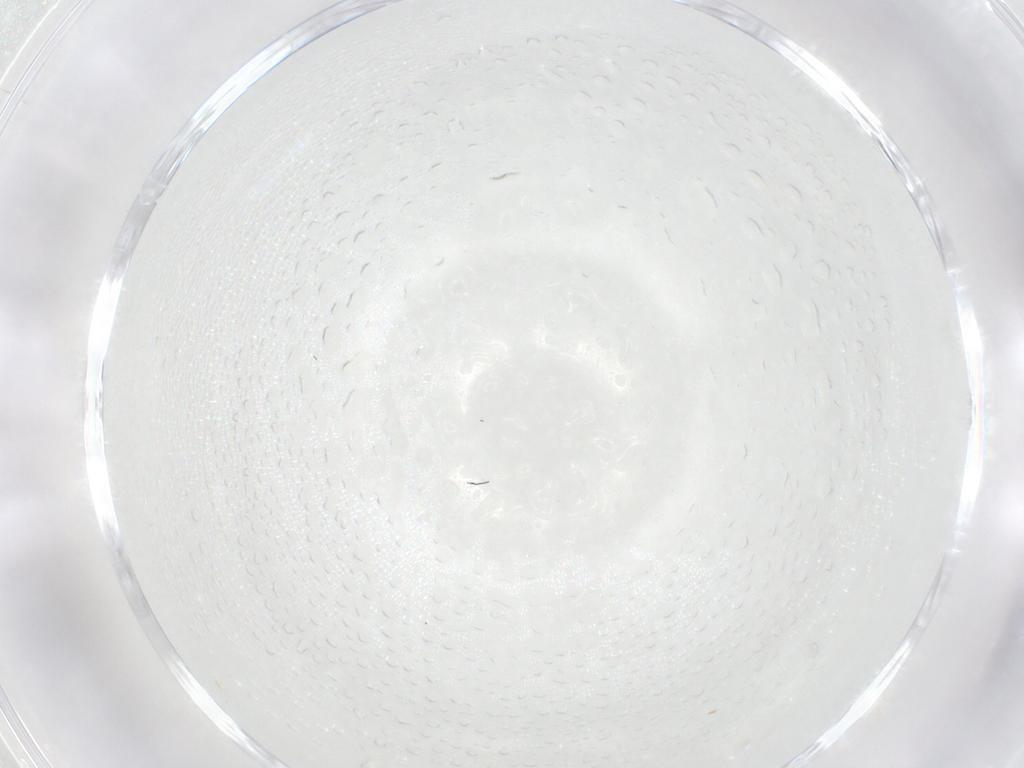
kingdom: Animalia
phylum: Arthropoda
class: Insecta
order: Hemiptera
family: Coccidae
